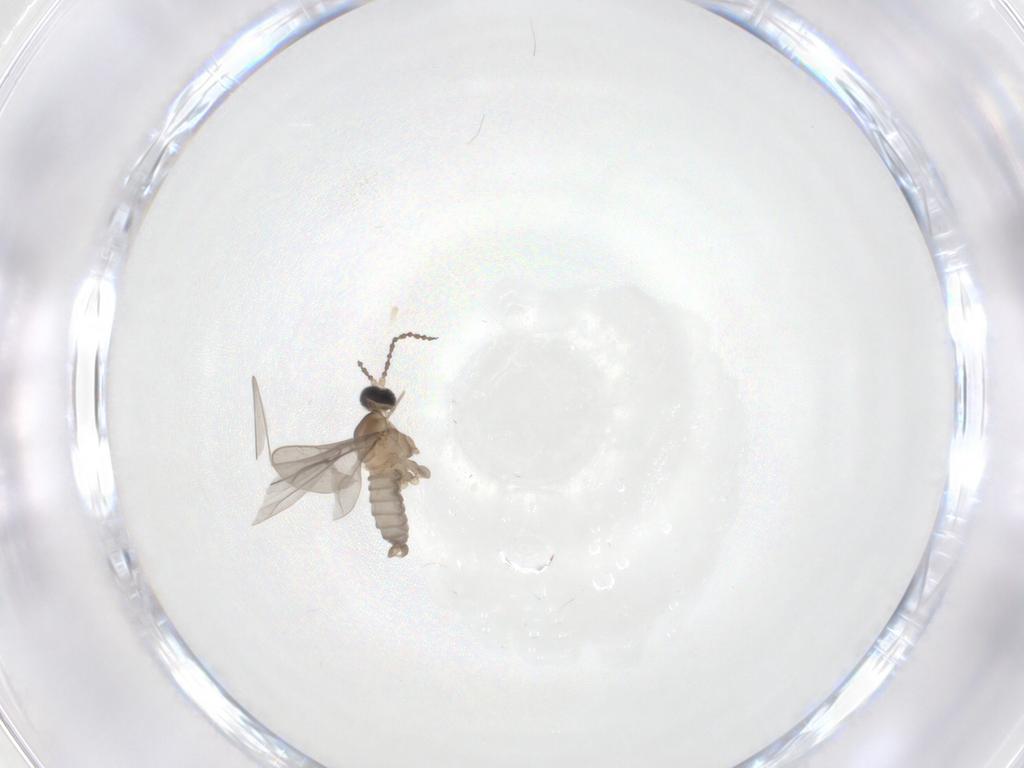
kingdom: Animalia
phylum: Arthropoda
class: Insecta
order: Diptera
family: Cecidomyiidae
